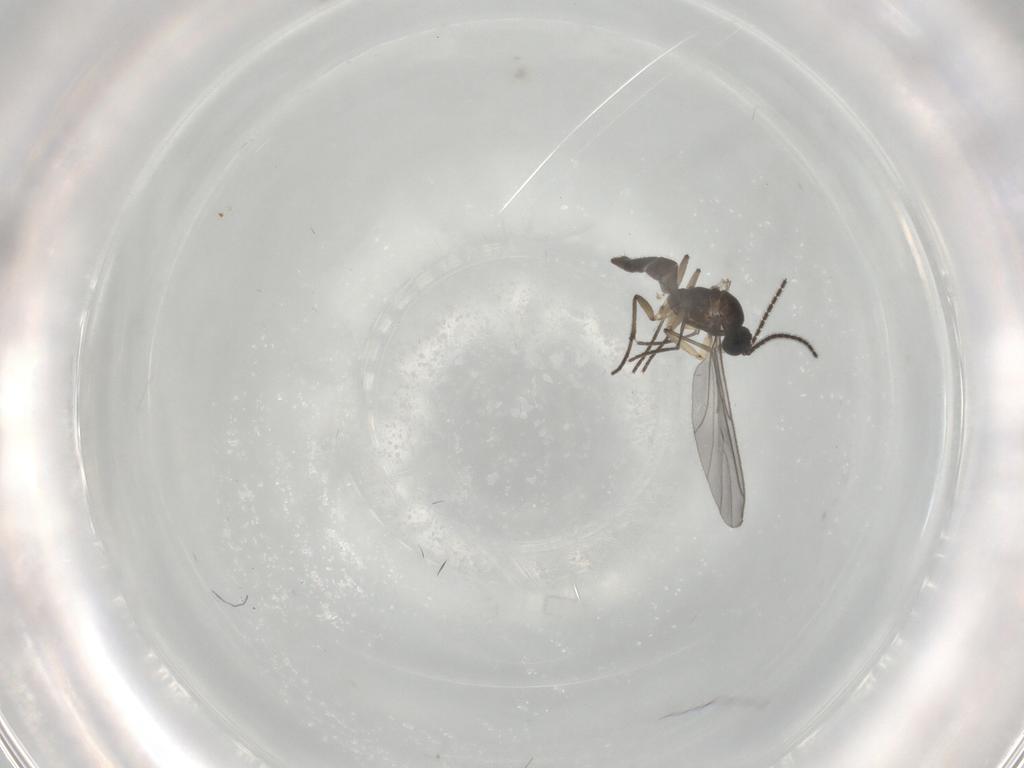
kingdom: Animalia
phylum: Arthropoda
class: Insecta
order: Diptera
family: Sciaridae
